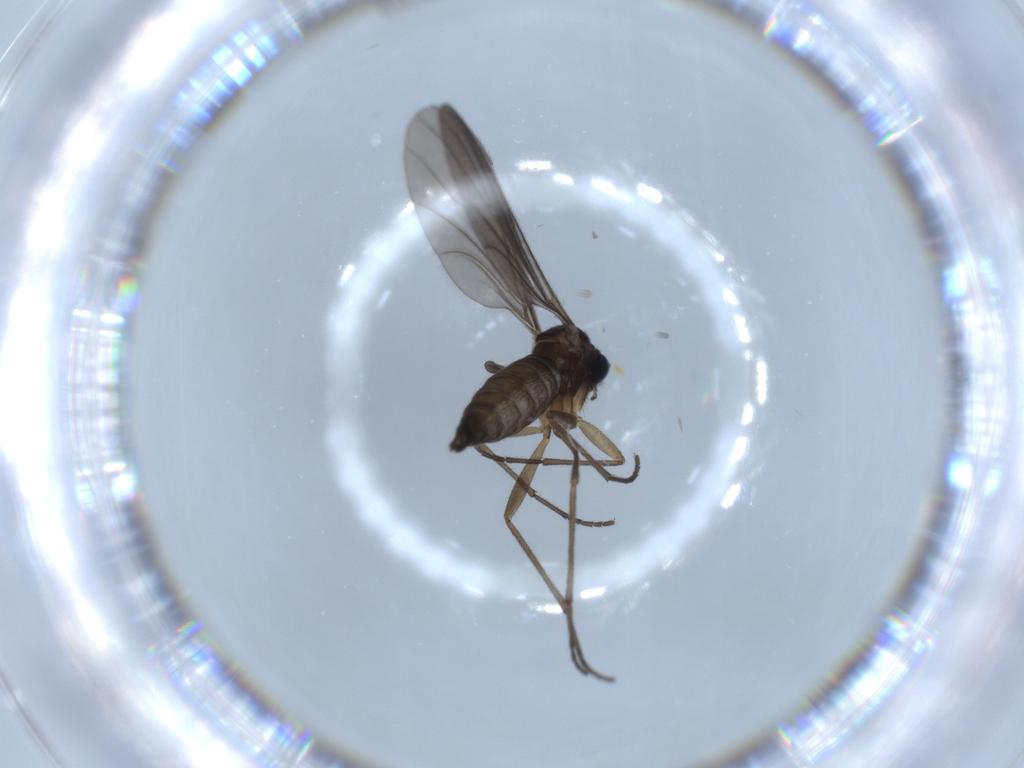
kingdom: Animalia
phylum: Arthropoda
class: Insecta
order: Diptera
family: Sciaridae
